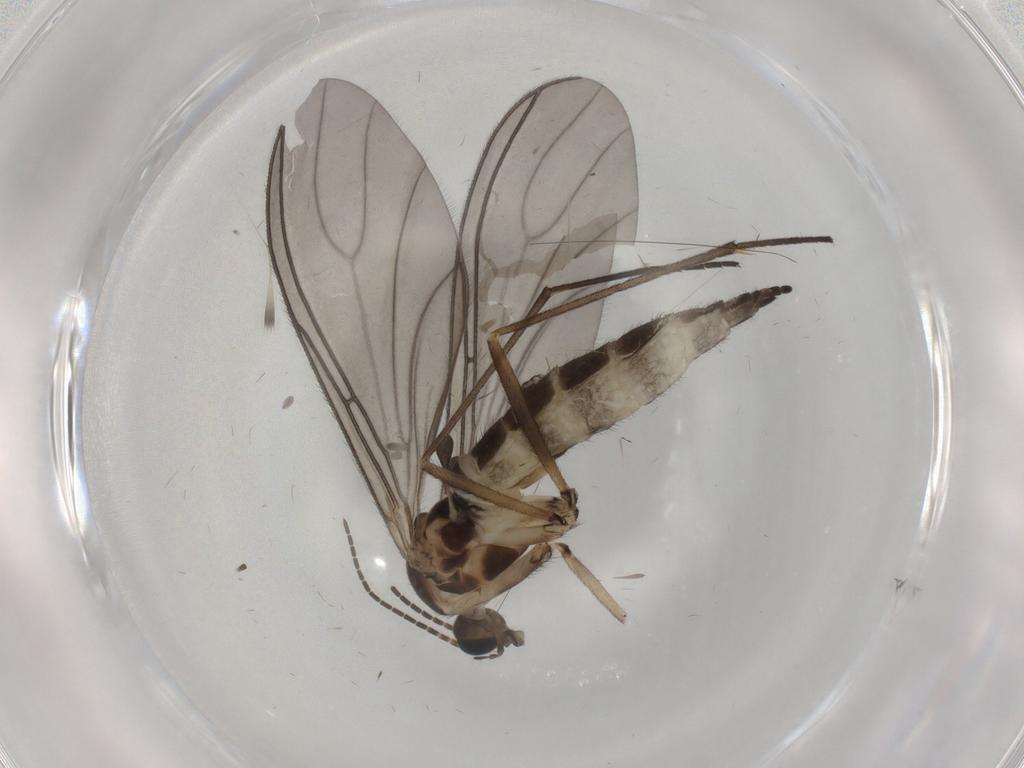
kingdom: Animalia
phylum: Arthropoda
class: Insecta
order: Diptera
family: Sciaridae
